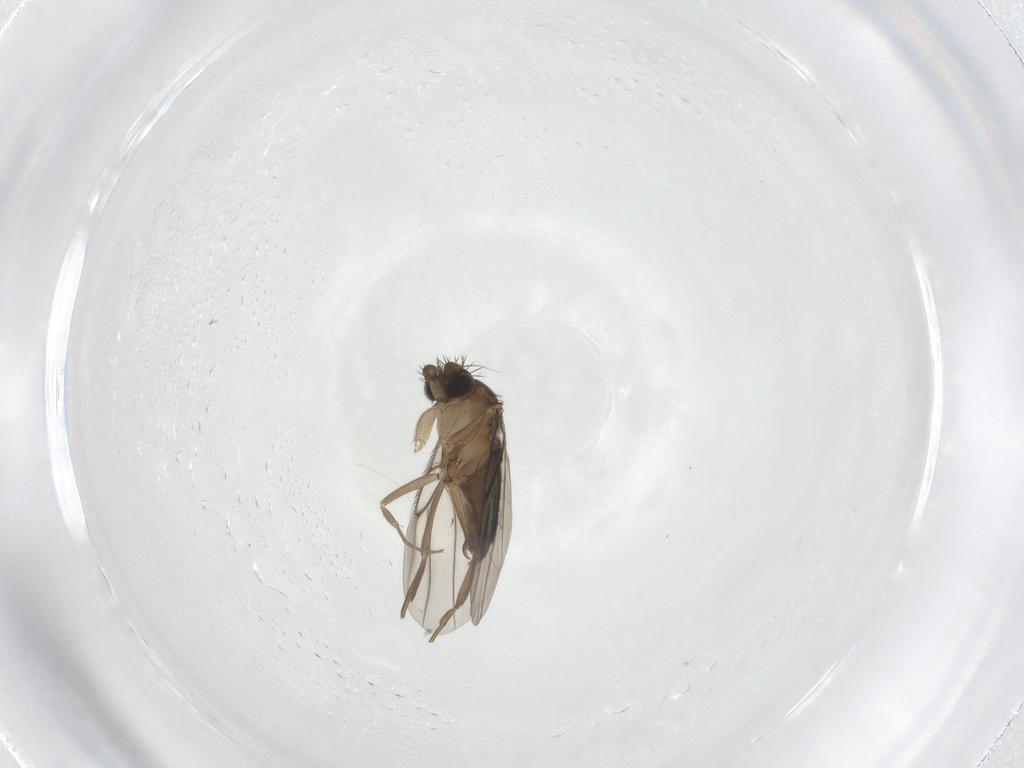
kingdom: Animalia
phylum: Arthropoda
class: Insecta
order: Diptera
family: Phoridae
